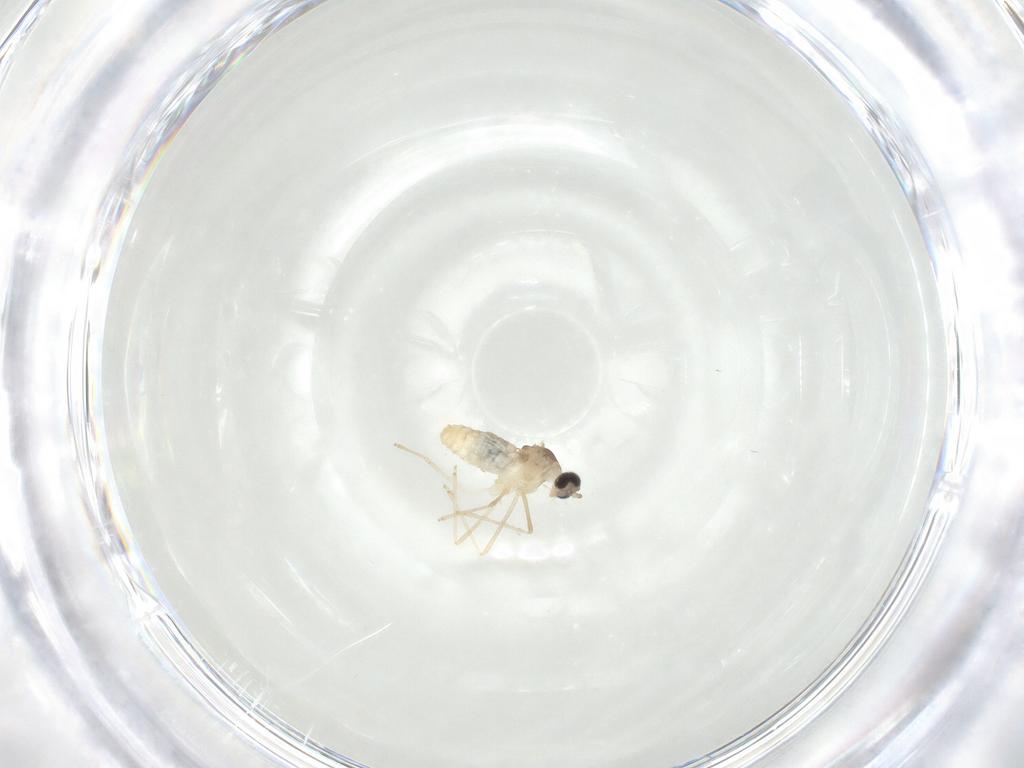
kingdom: Animalia
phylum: Arthropoda
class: Insecta
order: Diptera
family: Cecidomyiidae
